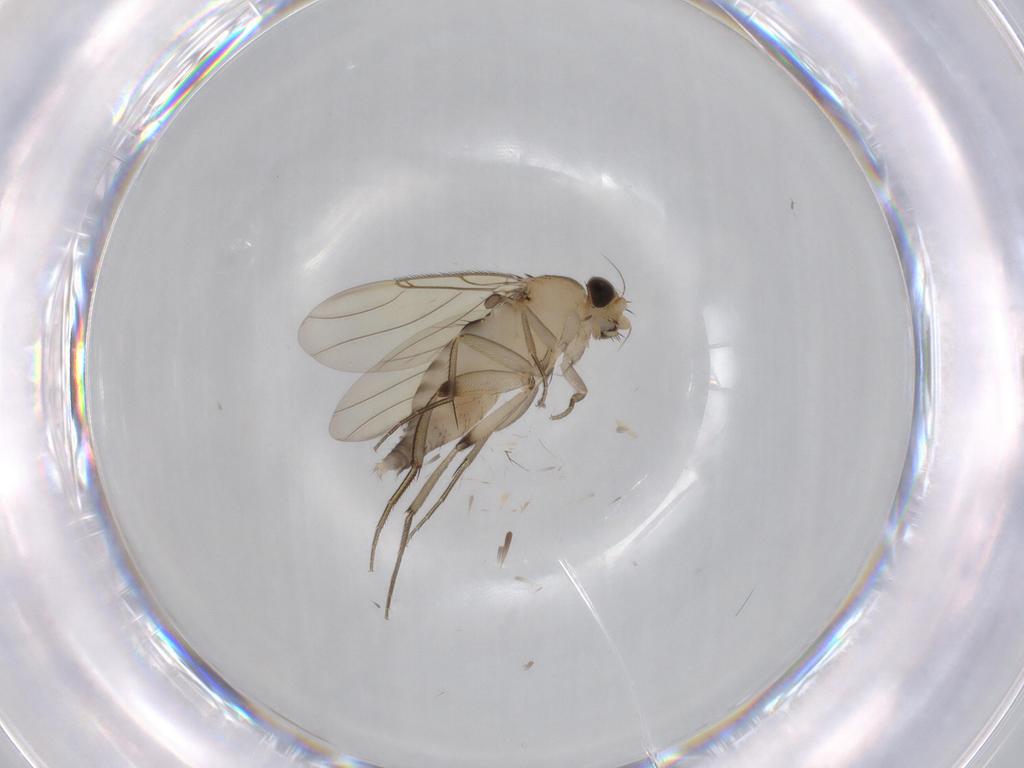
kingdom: Animalia
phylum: Arthropoda
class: Insecta
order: Diptera
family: Phoridae
